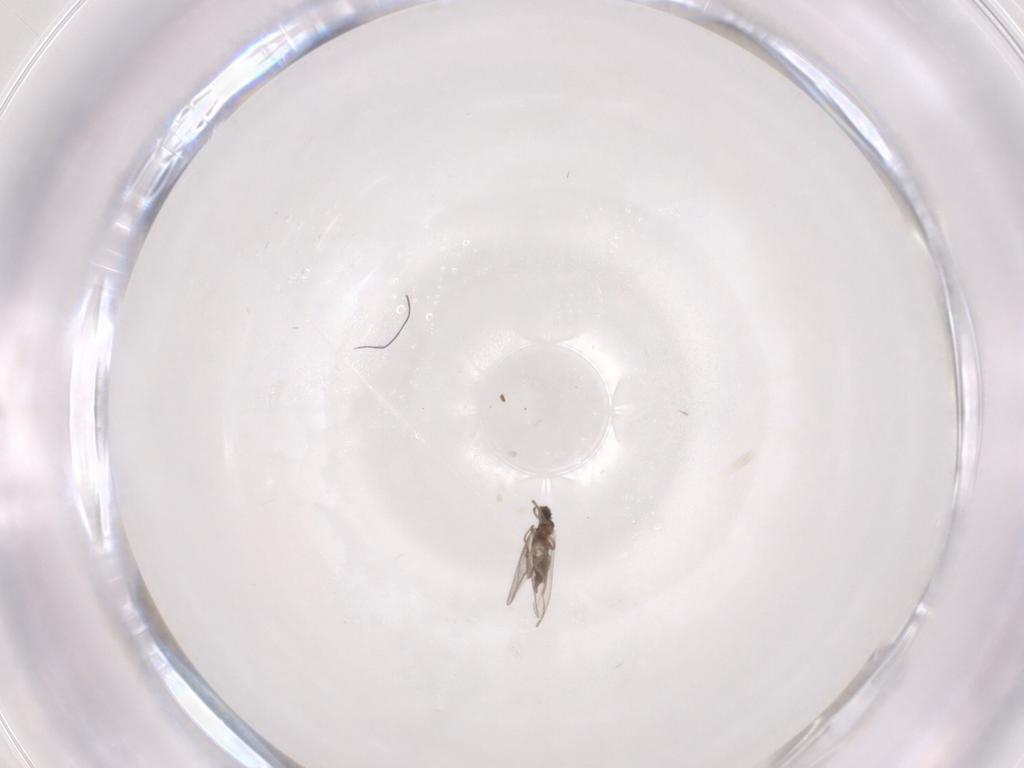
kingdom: Animalia
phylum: Arthropoda
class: Insecta
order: Diptera
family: Cecidomyiidae
